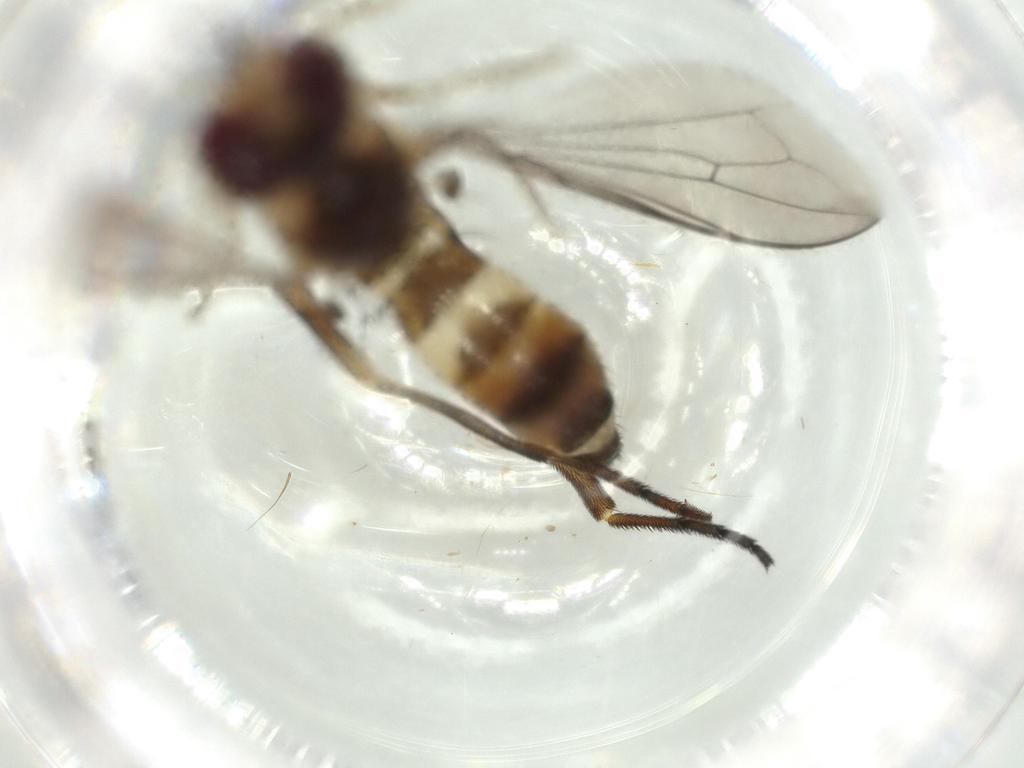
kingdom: Animalia
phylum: Arthropoda
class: Insecta
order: Diptera
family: Conopidae
